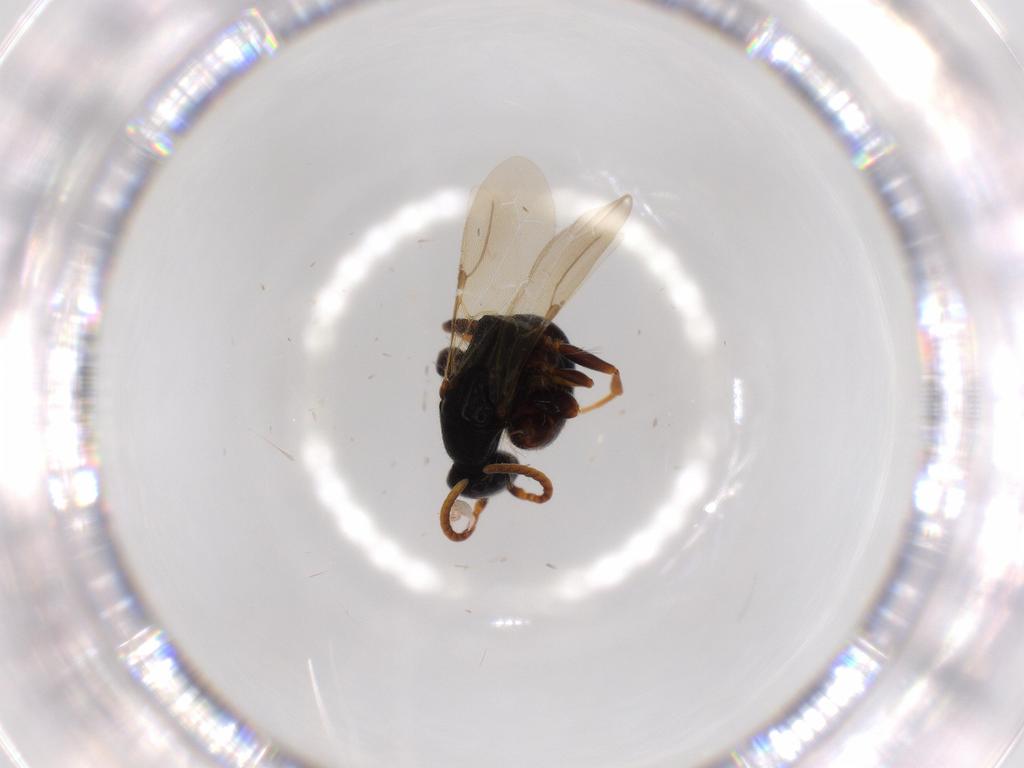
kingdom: Animalia
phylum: Arthropoda
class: Insecta
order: Hymenoptera
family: Bethylidae
